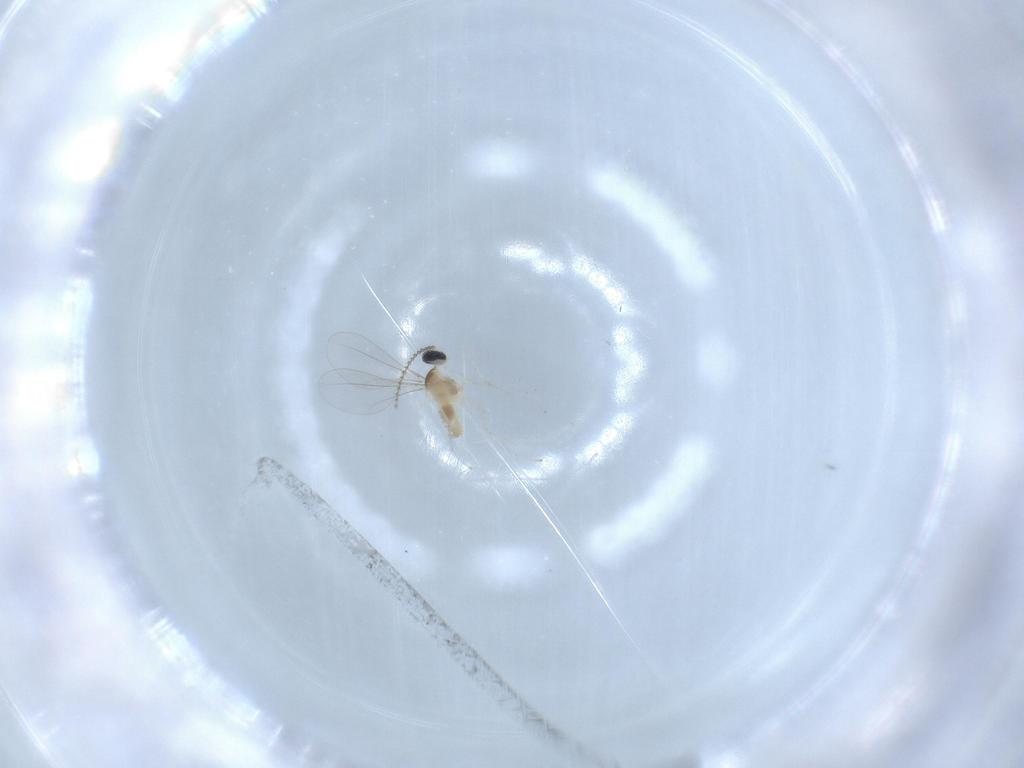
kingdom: Animalia
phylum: Arthropoda
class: Insecta
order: Diptera
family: Cecidomyiidae
